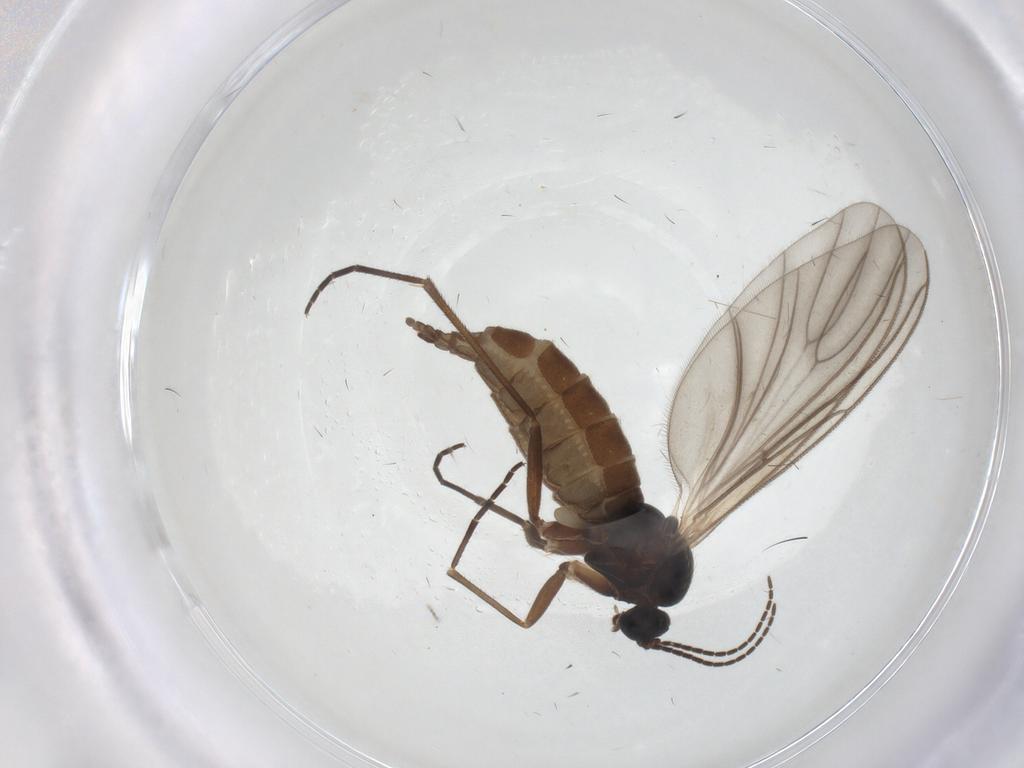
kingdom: Animalia
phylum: Arthropoda
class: Insecta
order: Diptera
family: Sciaridae
